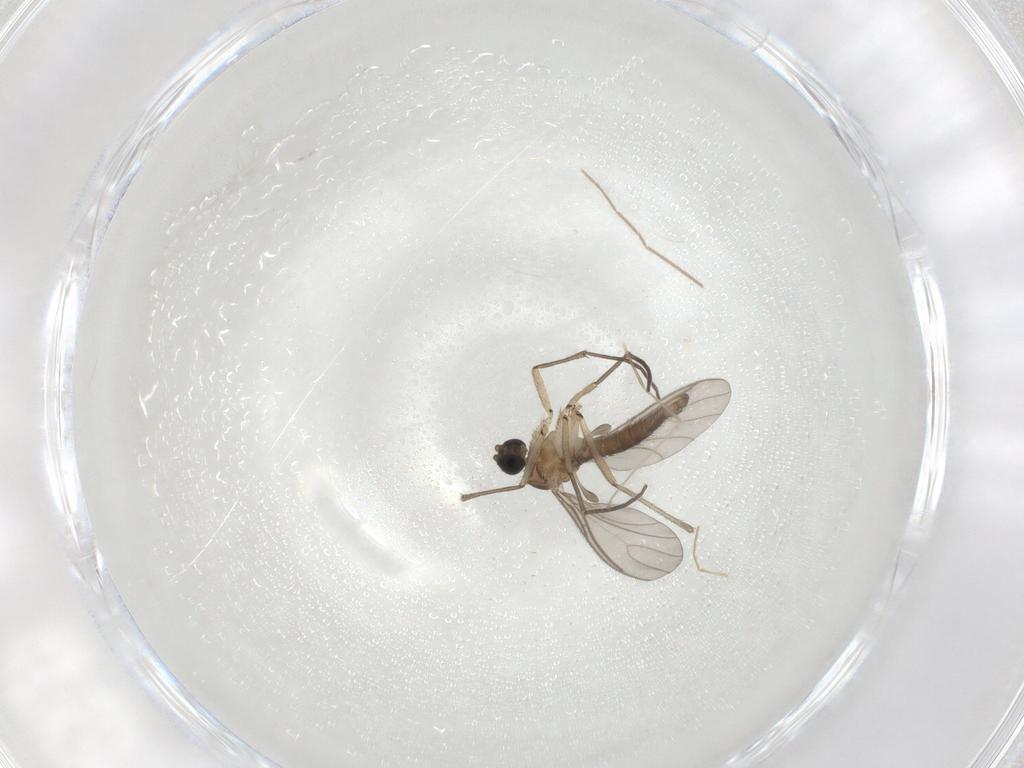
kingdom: Animalia
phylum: Arthropoda
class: Insecta
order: Diptera
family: Sciaridae
